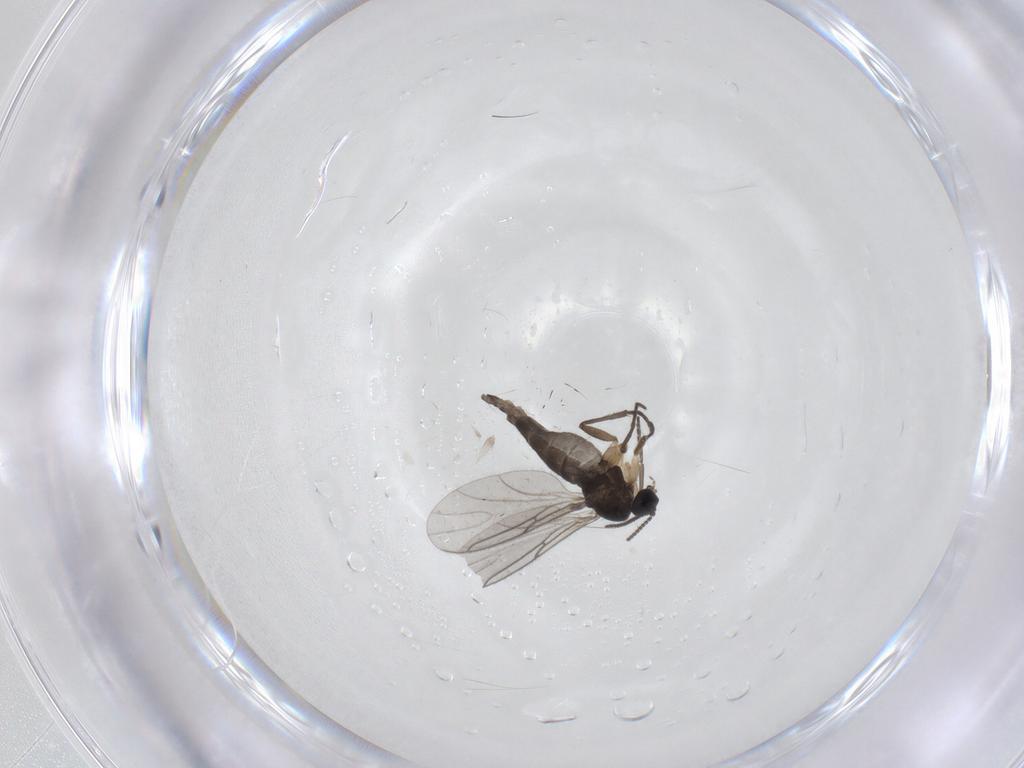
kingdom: Animalia
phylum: Arthropoda
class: Insecta
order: Diptera
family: Sciaridae
